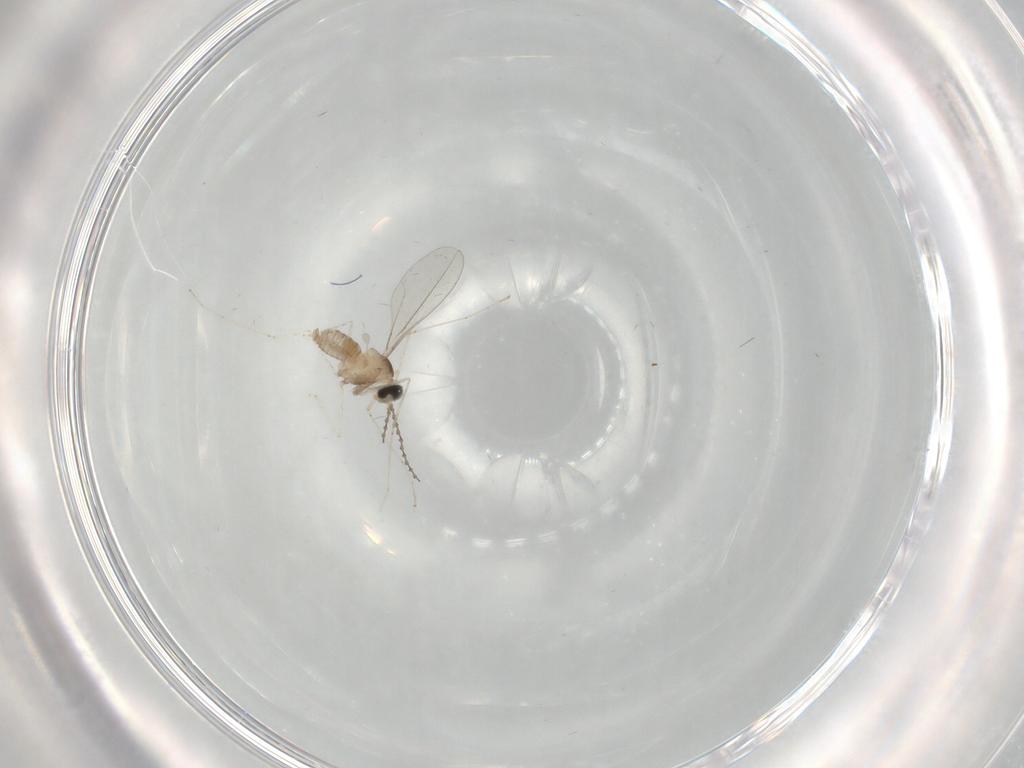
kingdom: Animalia
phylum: Arthropoda
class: Insecta
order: Diptera
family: Cecidomyiidae
